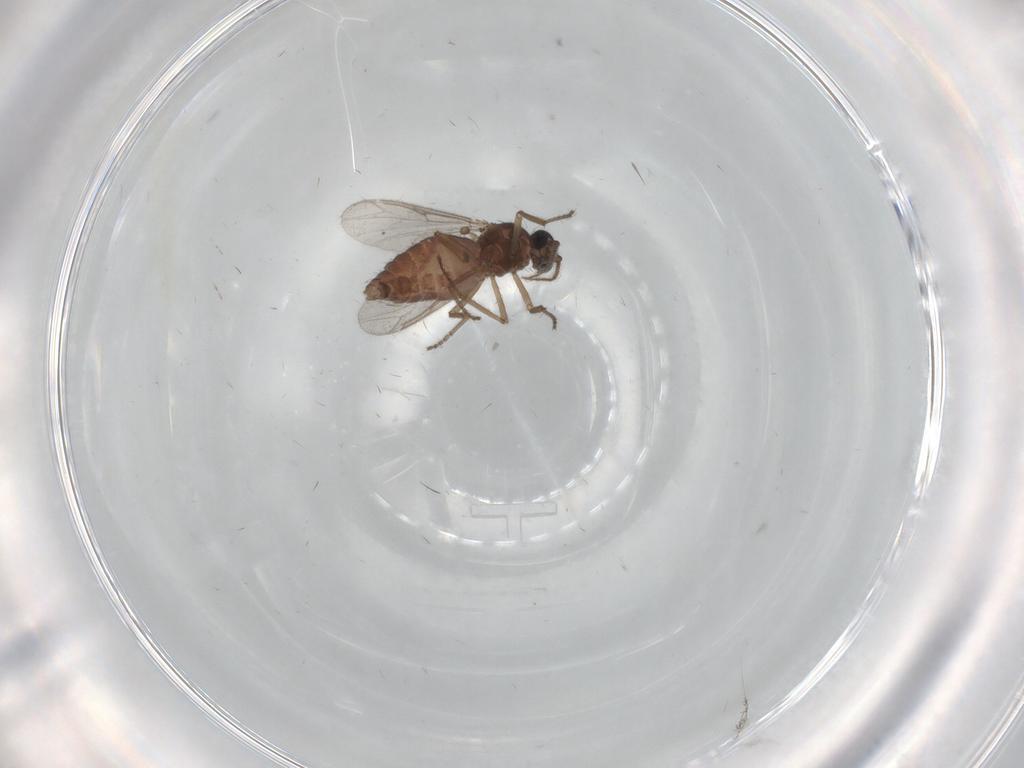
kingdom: Animalia
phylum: Arthropoda
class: Insecta
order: Diptera
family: Ceratopogonidae
